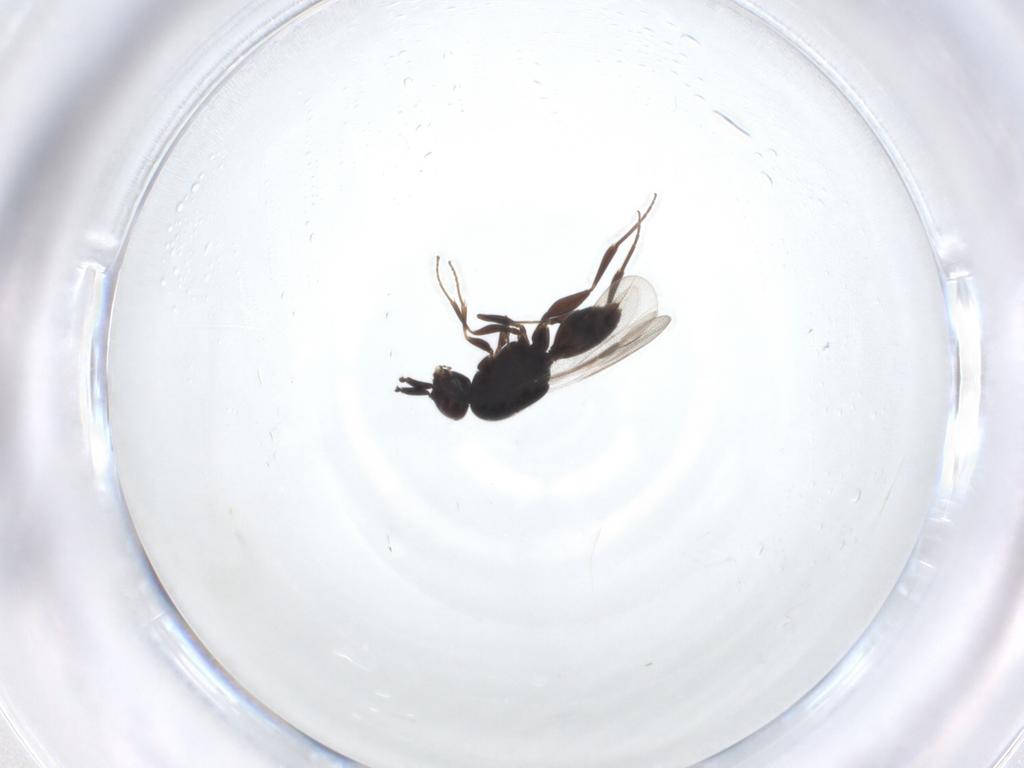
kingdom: Animalia
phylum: Arthropoda
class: Insecta
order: Hymenoptera
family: Megaspilidae
